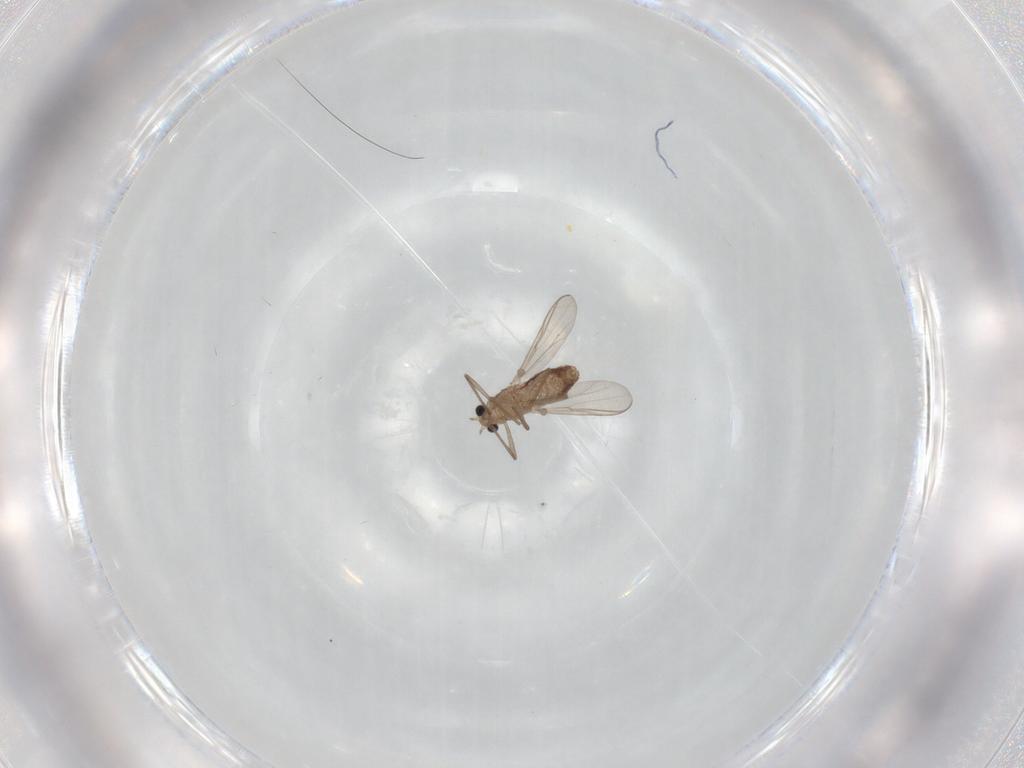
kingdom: Animalia
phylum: Arthropoda
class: Insecta
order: Diptera
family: Chironomidae
